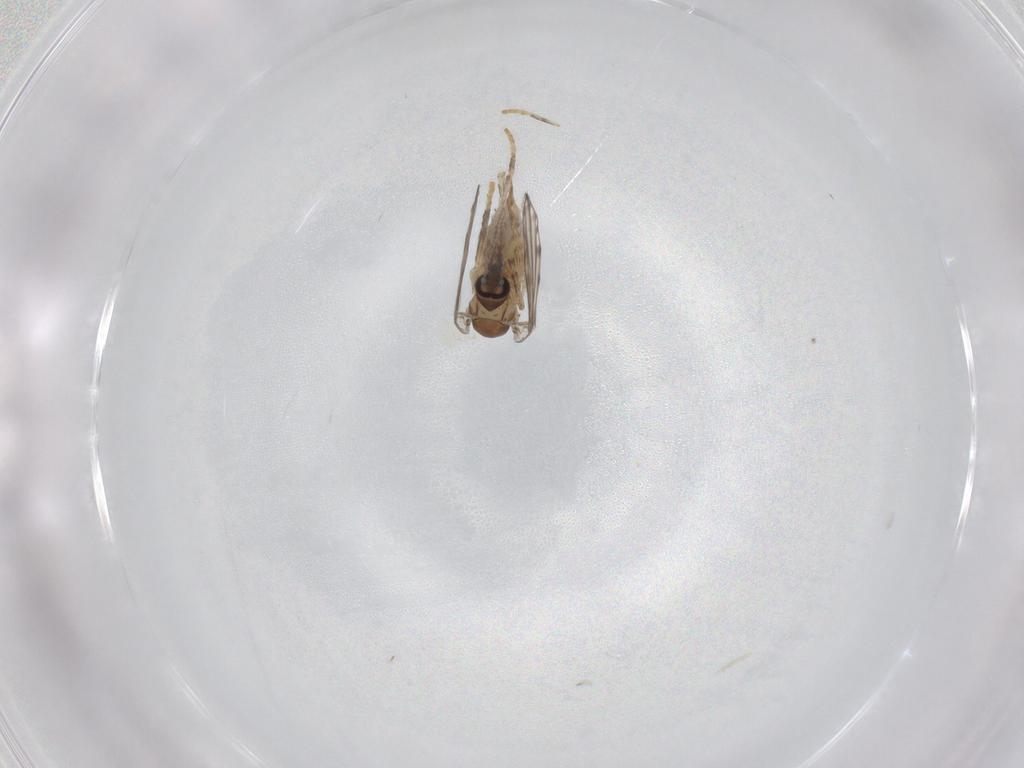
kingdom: Animalia
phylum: Arthropoda
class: Insecta
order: Diptera
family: Psychodidae
